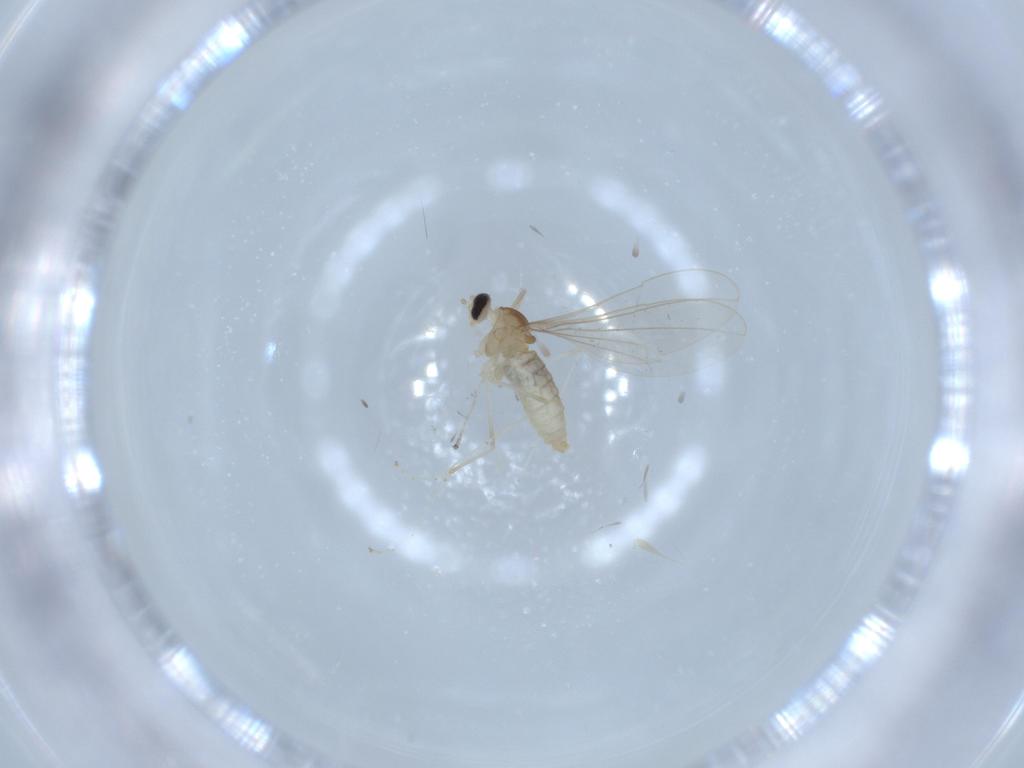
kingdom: Animalia
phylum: Arthropoda
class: Insecta
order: Diptera
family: Cecidomyiidae
